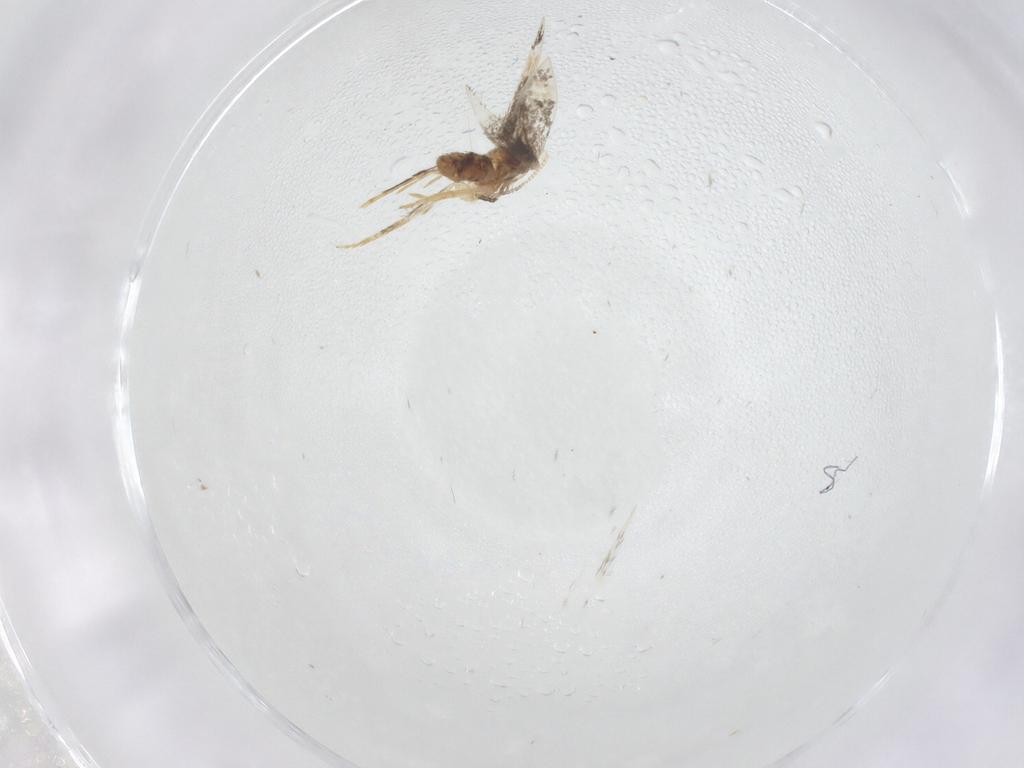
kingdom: Animalia
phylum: Arthropoda
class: Insecta
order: Lepidoptera
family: Nepticulidae
